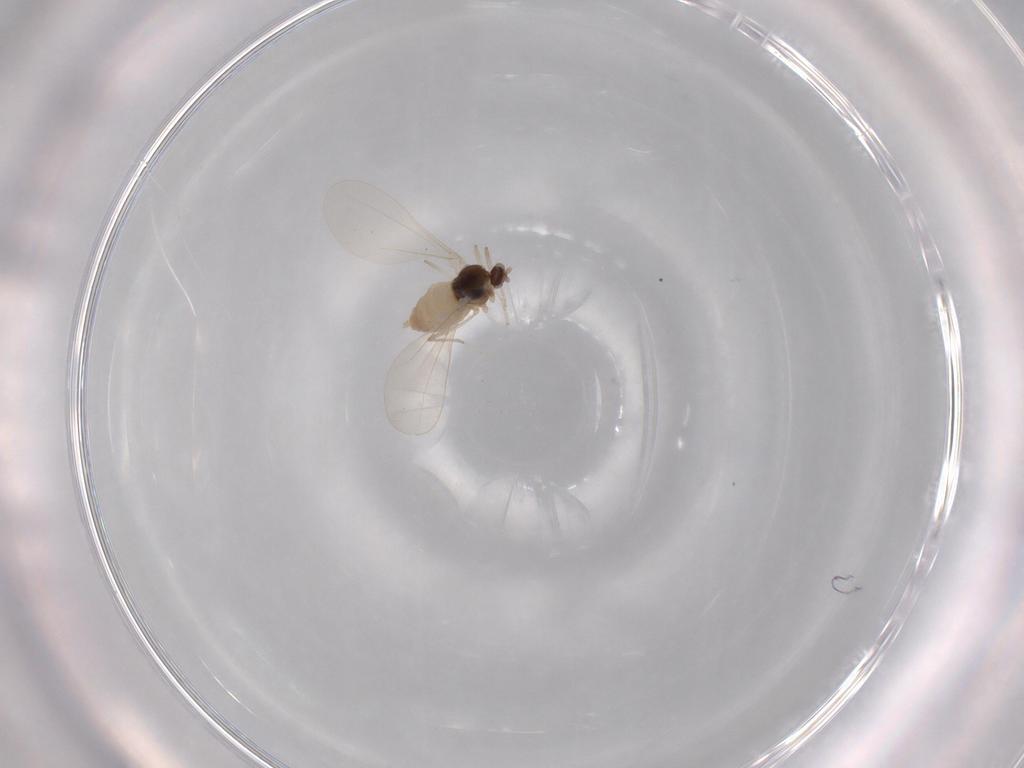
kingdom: Animalia
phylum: Arthropoda
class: Insecta
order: Diptera
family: Cecidomyiidae
